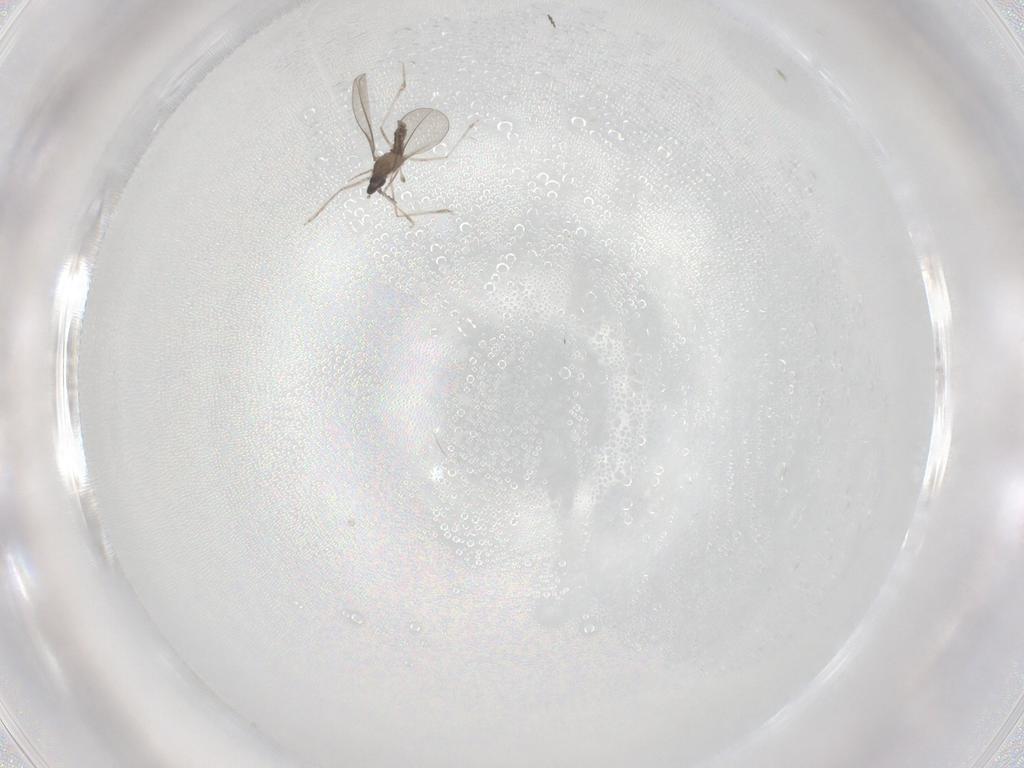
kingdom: Animalia
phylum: Arthropoda
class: Insecta
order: Diptera
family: Cecidomyiidae
